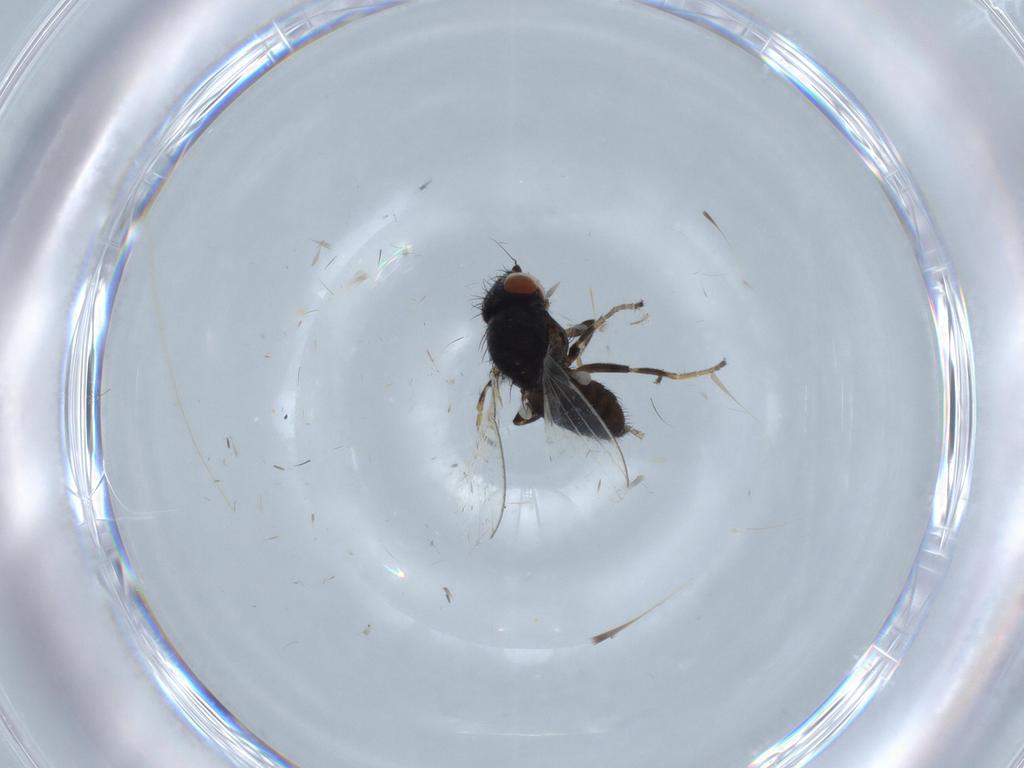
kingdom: Animalia
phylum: Arthropoda
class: Insecta
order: Diptera
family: Milichiidae
